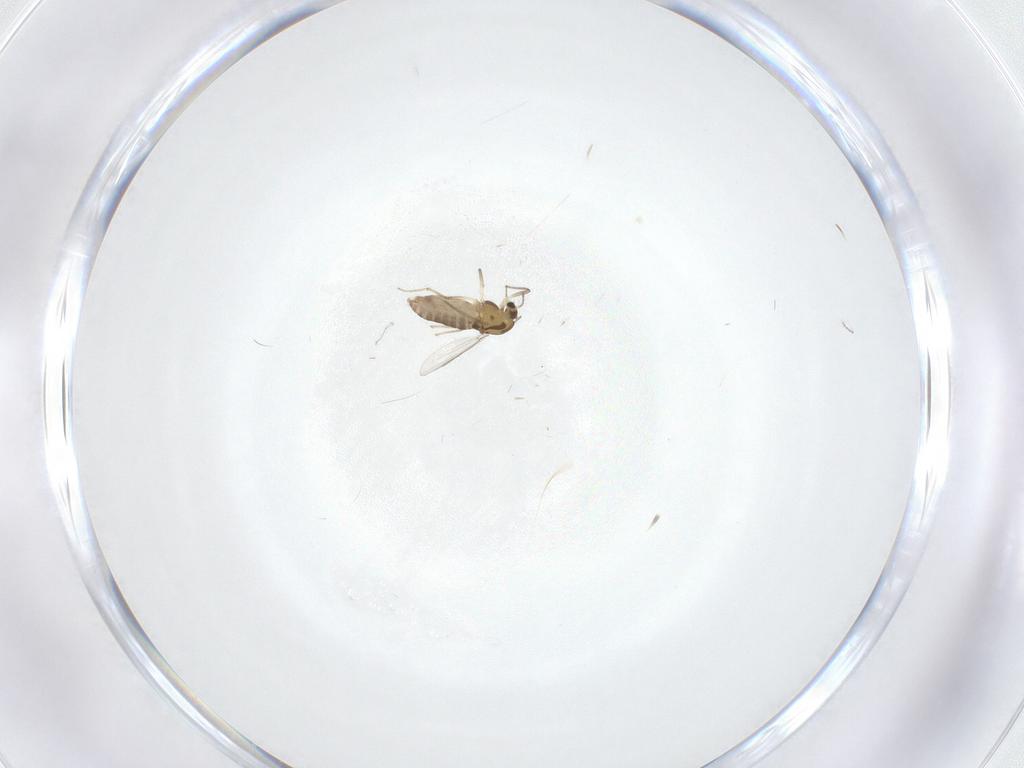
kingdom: Animalia
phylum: Arthropoda
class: Insecta
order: Diptera
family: Chironomidae
